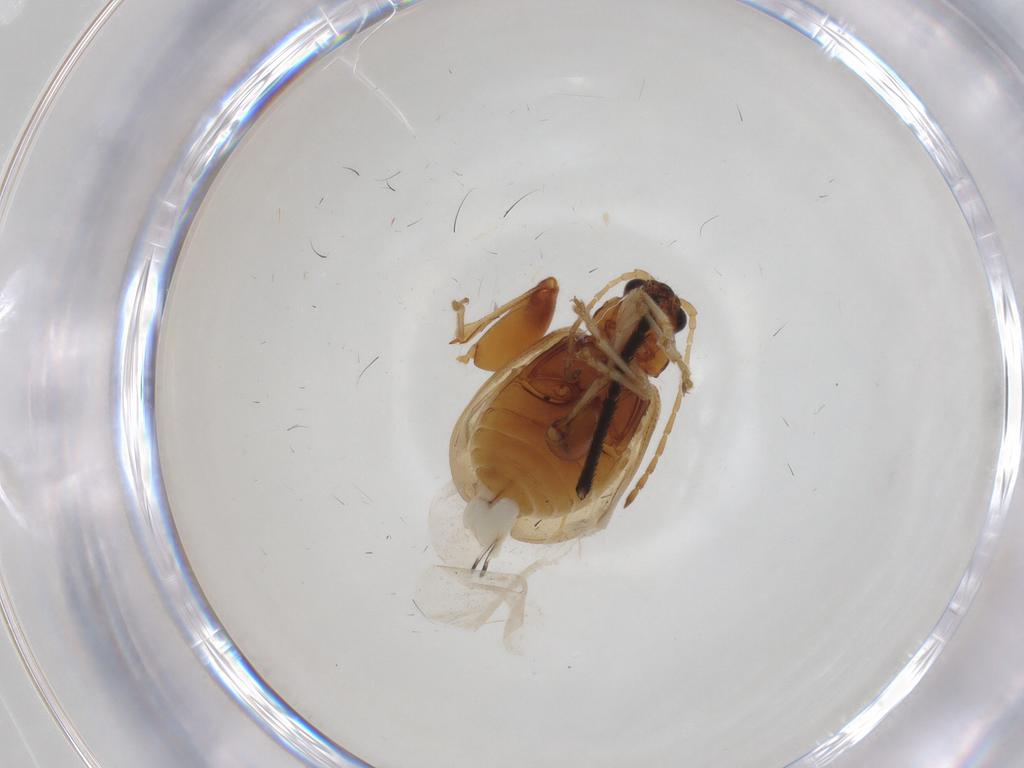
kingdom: Animalia
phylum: Arthropoda
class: Insecta
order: Coleoptera
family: Chrysomelidae
